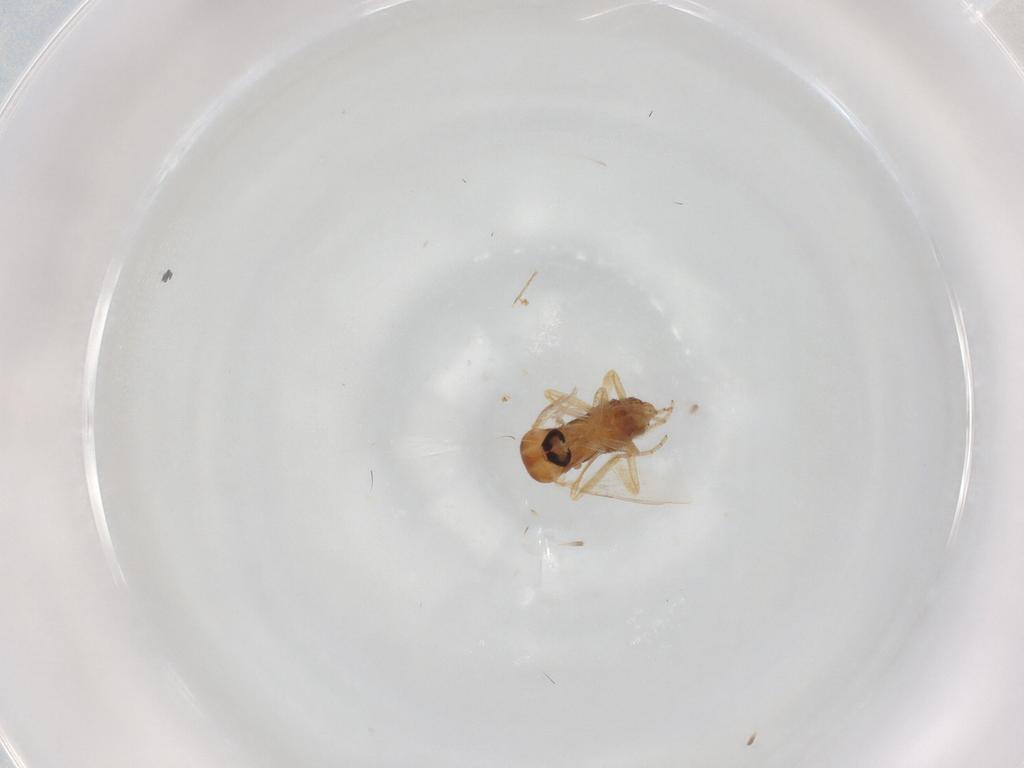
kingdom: Animalia
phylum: Arthropoda
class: Insecta
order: Diptera
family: Ceratopogonidae
